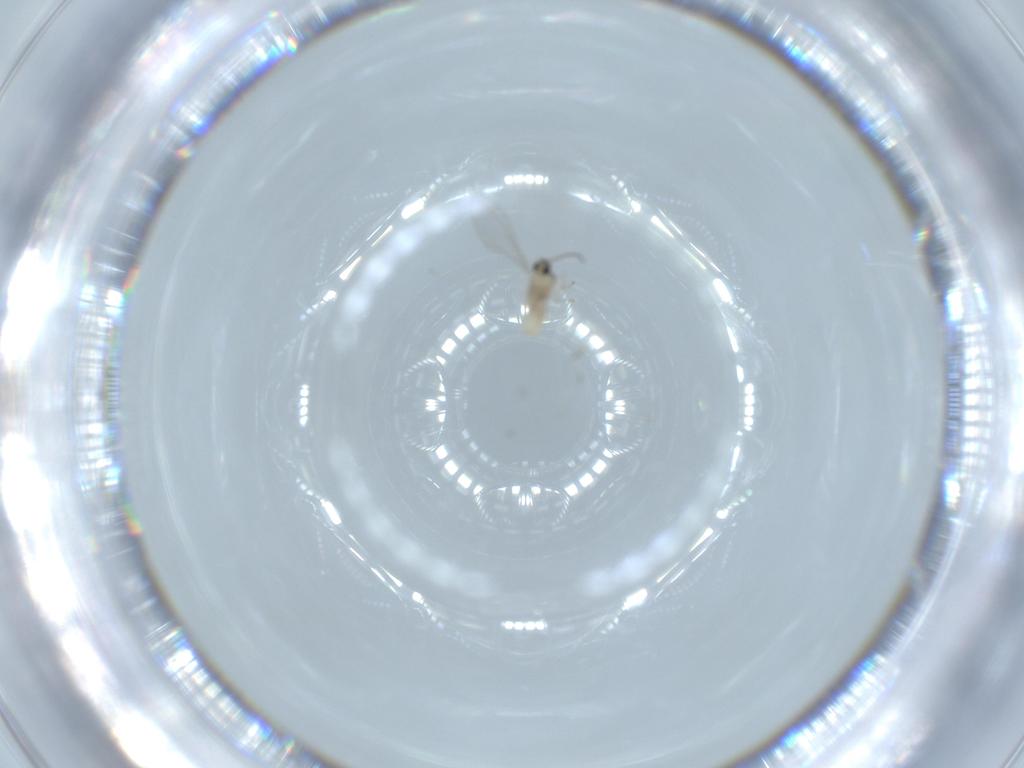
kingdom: Animalia
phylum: Arthropoda
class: Insecta
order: Diptera
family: Cecidomyiidae
